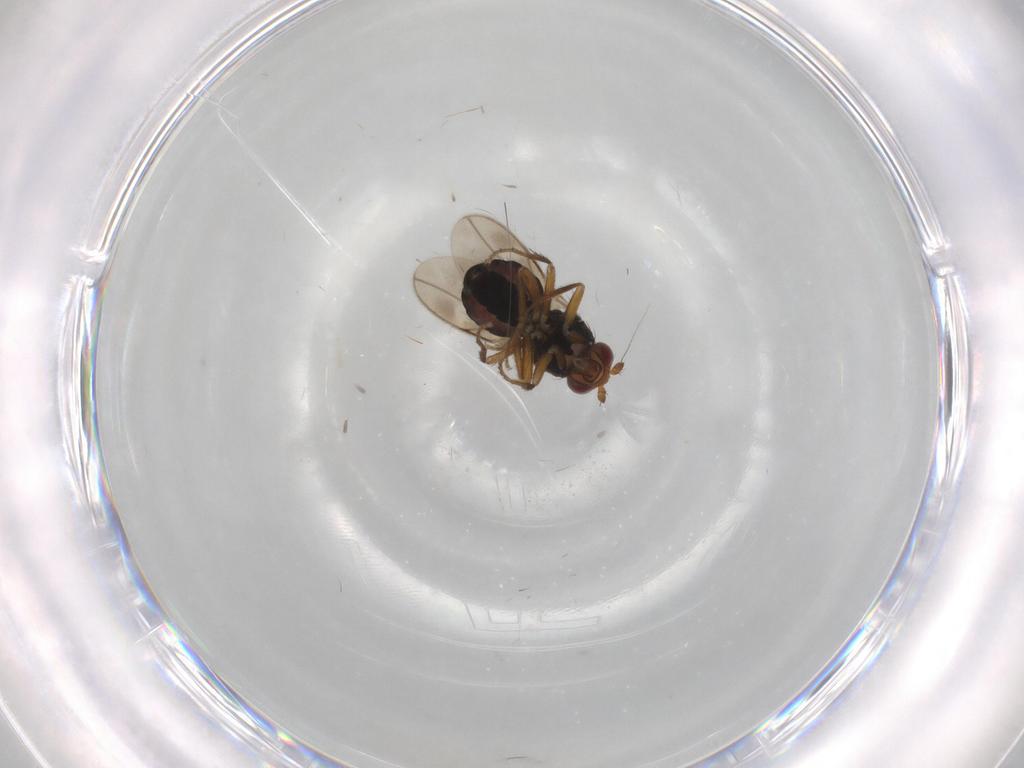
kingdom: Animalia
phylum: Arthropoda
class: Insecta
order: Diptera
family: Sphaeroceridae
